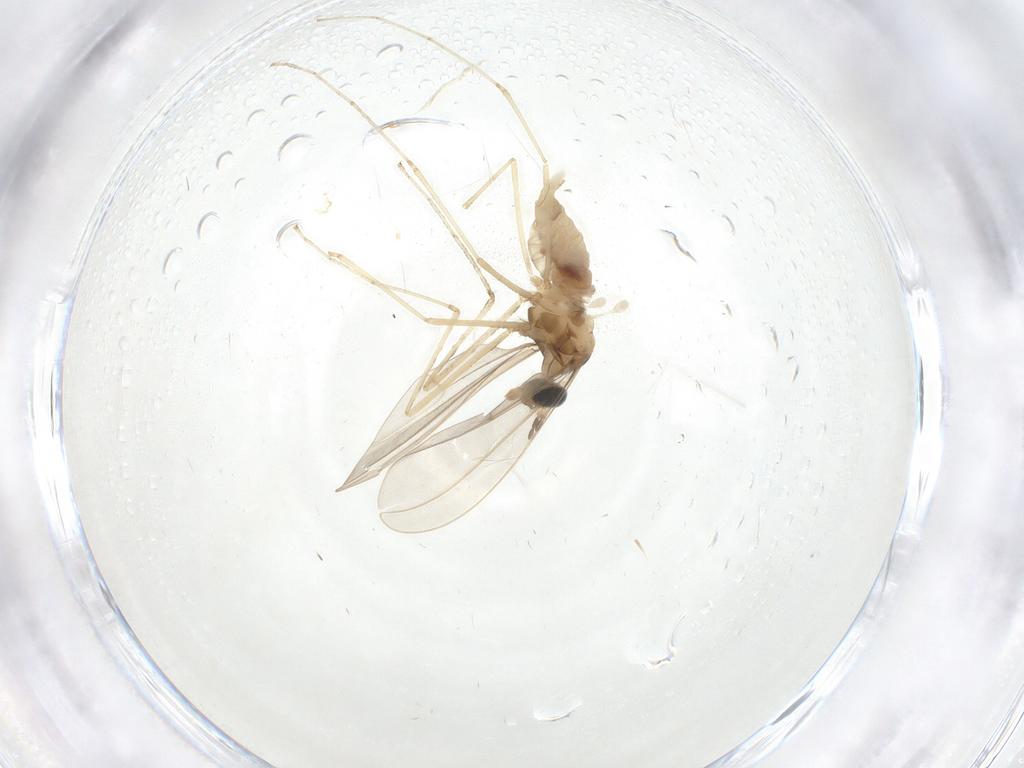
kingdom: Animalia
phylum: Arthropoda
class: Insecta
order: Diptera
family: Cecidomyiidae
